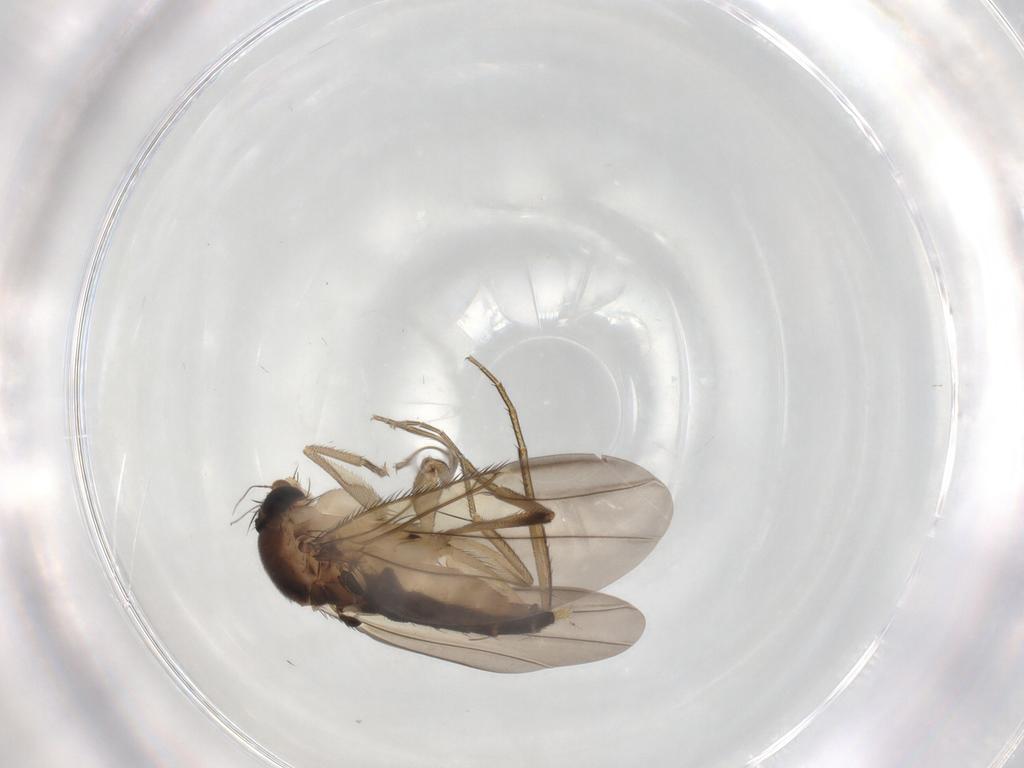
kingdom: Animalia
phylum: Arthropoda
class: Insecta
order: Diptera
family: Phoridae
